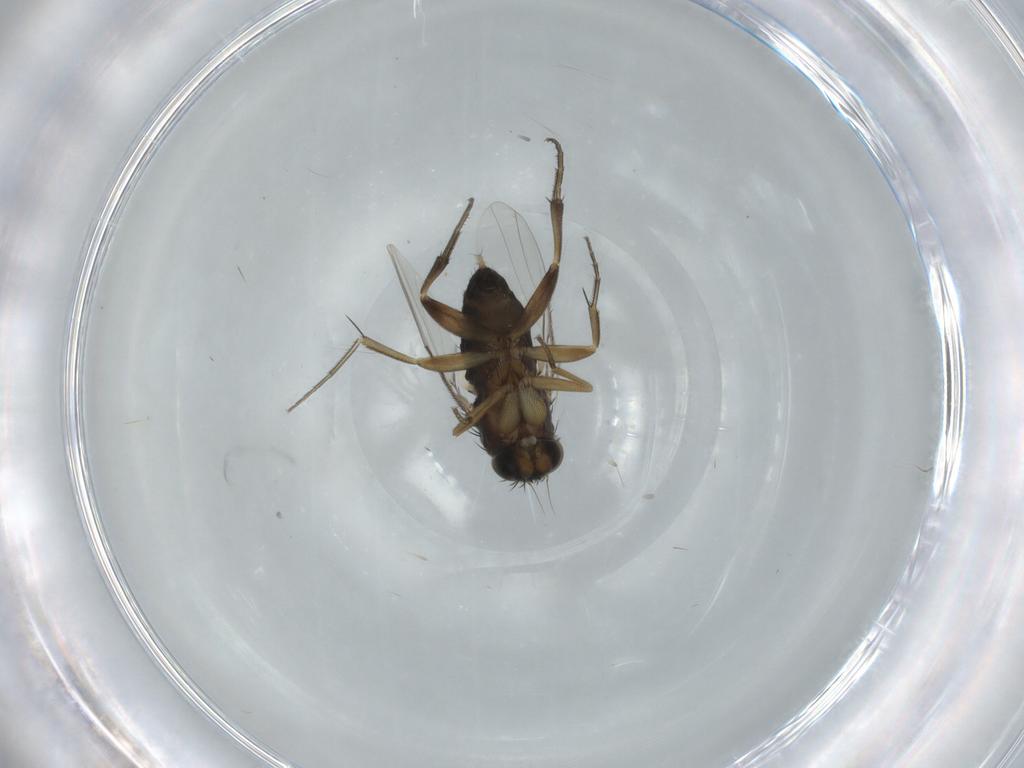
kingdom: Animalia
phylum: Arthropoda
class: Insecta
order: Diptera
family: Phoridae
